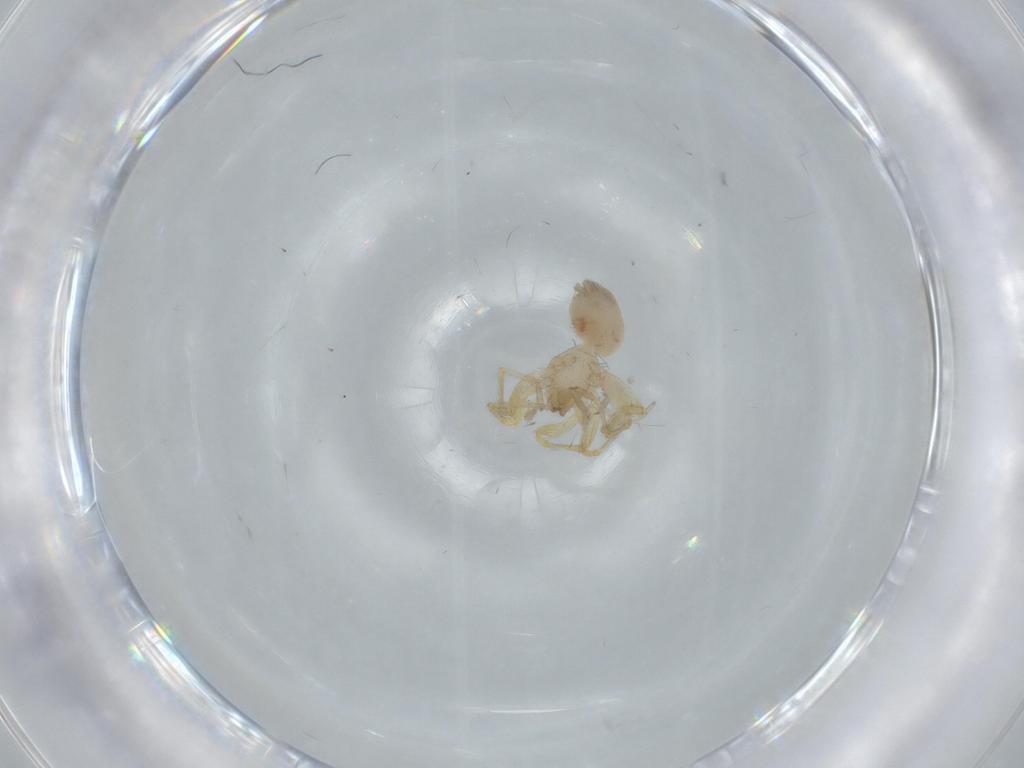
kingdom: Animalia
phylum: Arthropoda
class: Arachnida
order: Araneae
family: Oonopidae
